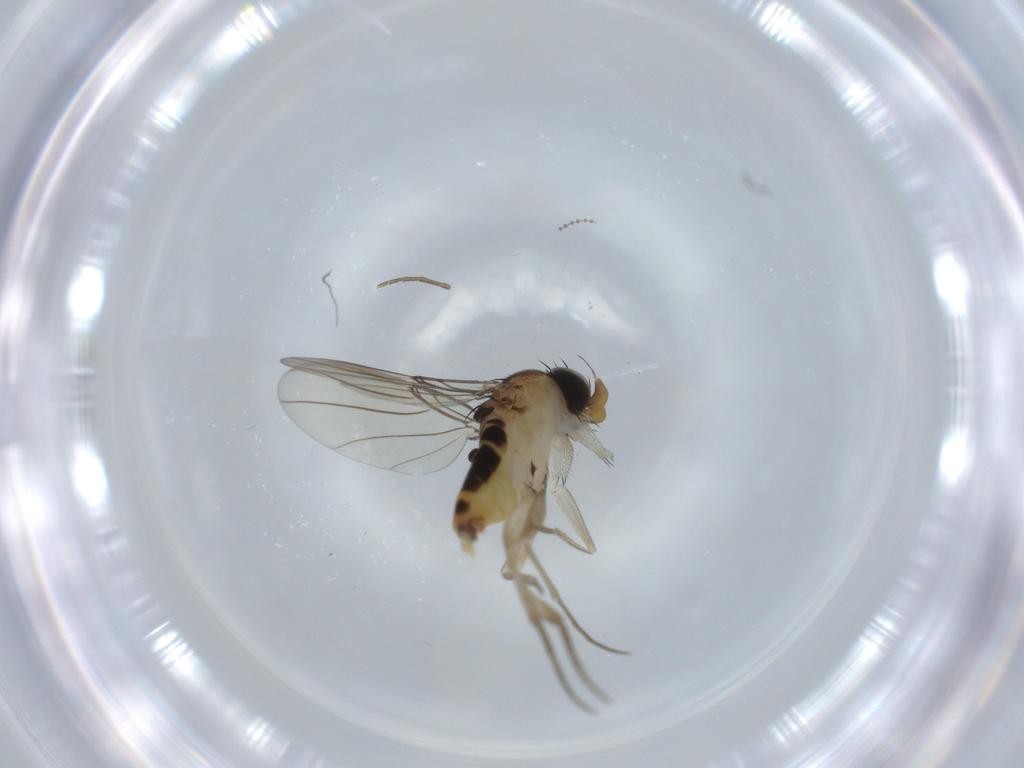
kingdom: Animalia
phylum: Arthropoda
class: Insecta
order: Diptera
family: Phoridae
